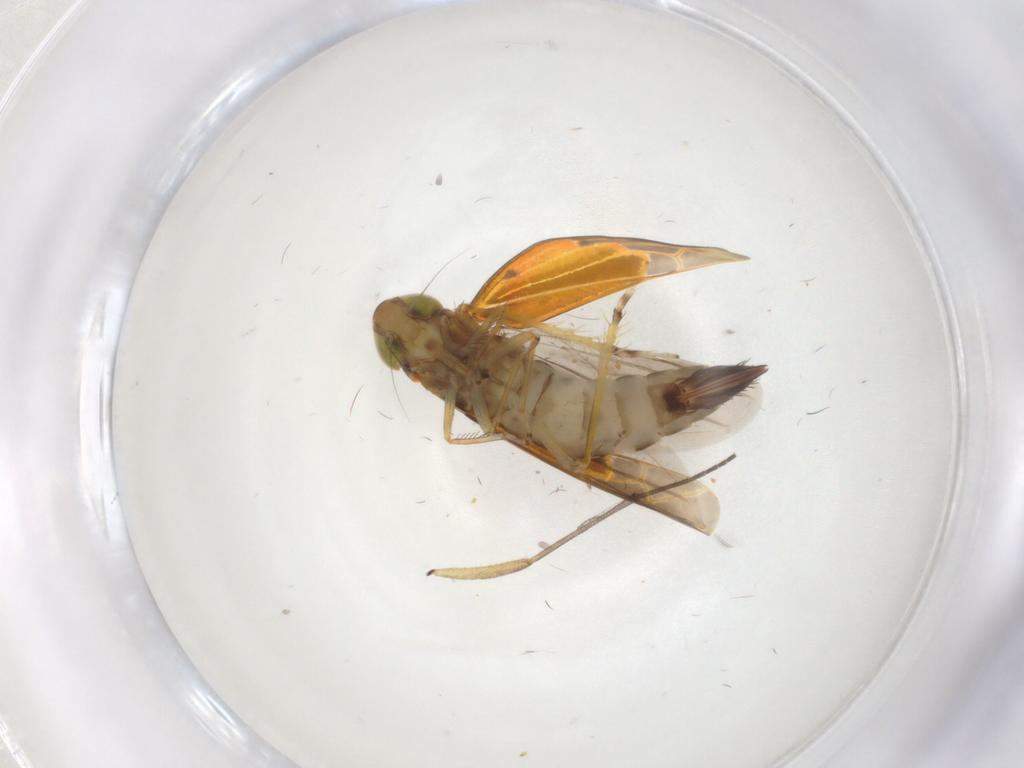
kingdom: Animalia
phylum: Arthropoda
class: Insecta
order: Hemiptera
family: Cicadellidae
